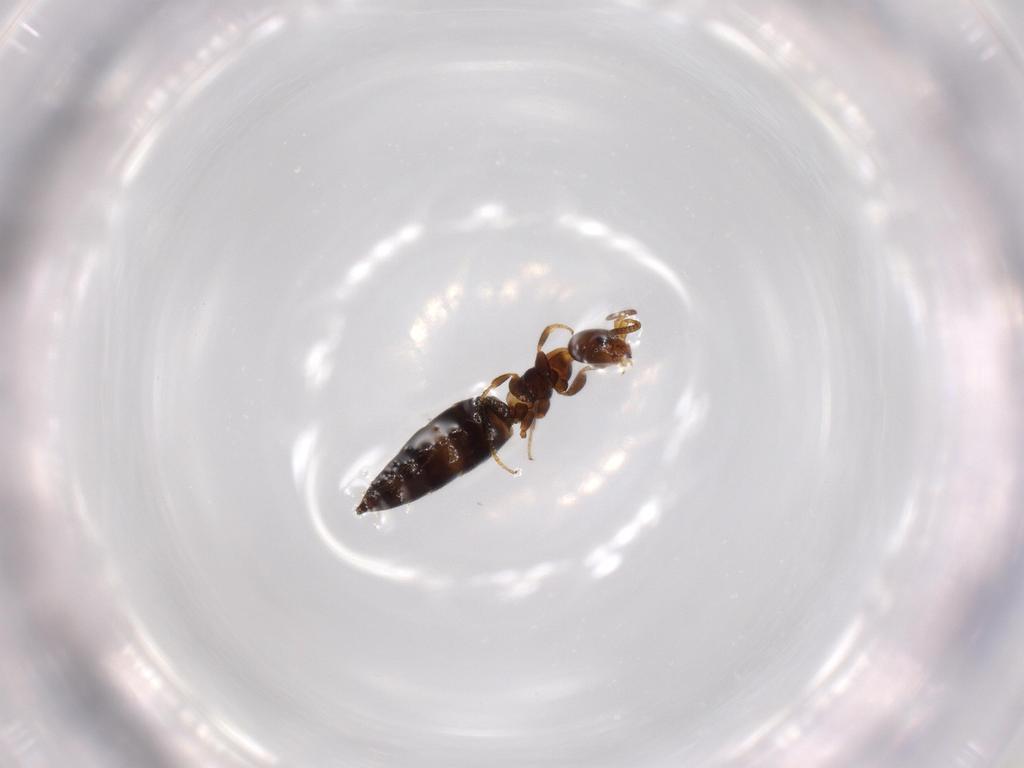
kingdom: Animalia
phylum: Arthropoda
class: Insecta
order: Hymenoptera
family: Bethylidae
